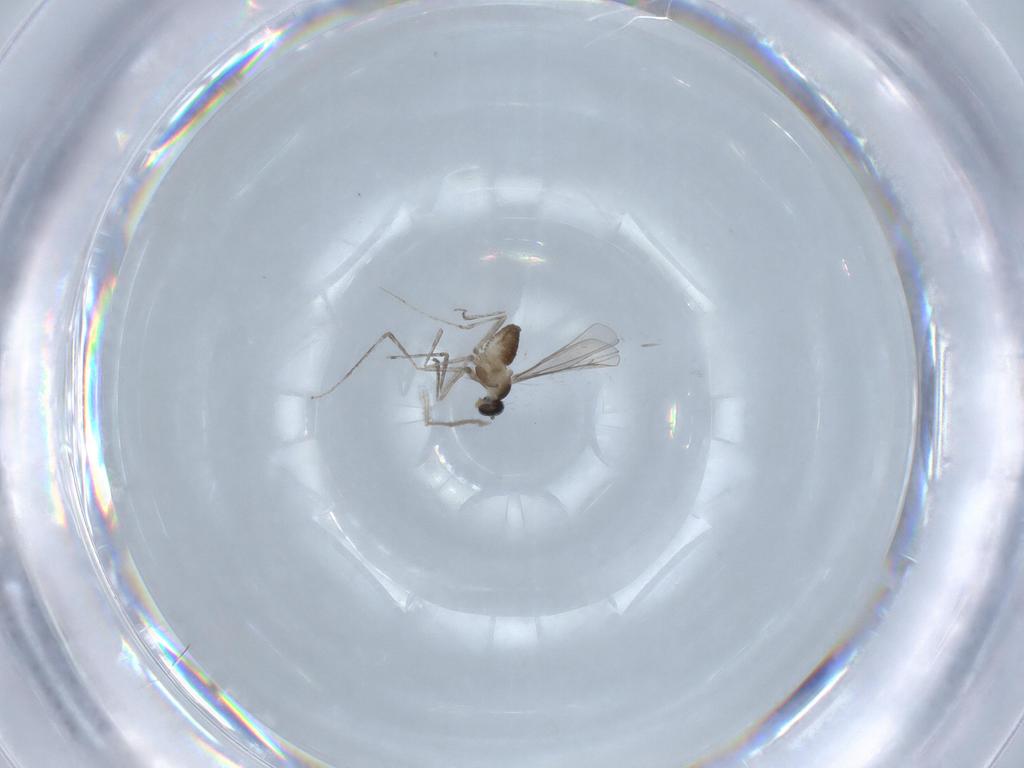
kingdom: Animalia
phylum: Arthropoda
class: Insecta
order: Diptera
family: Cecidomyiidae
